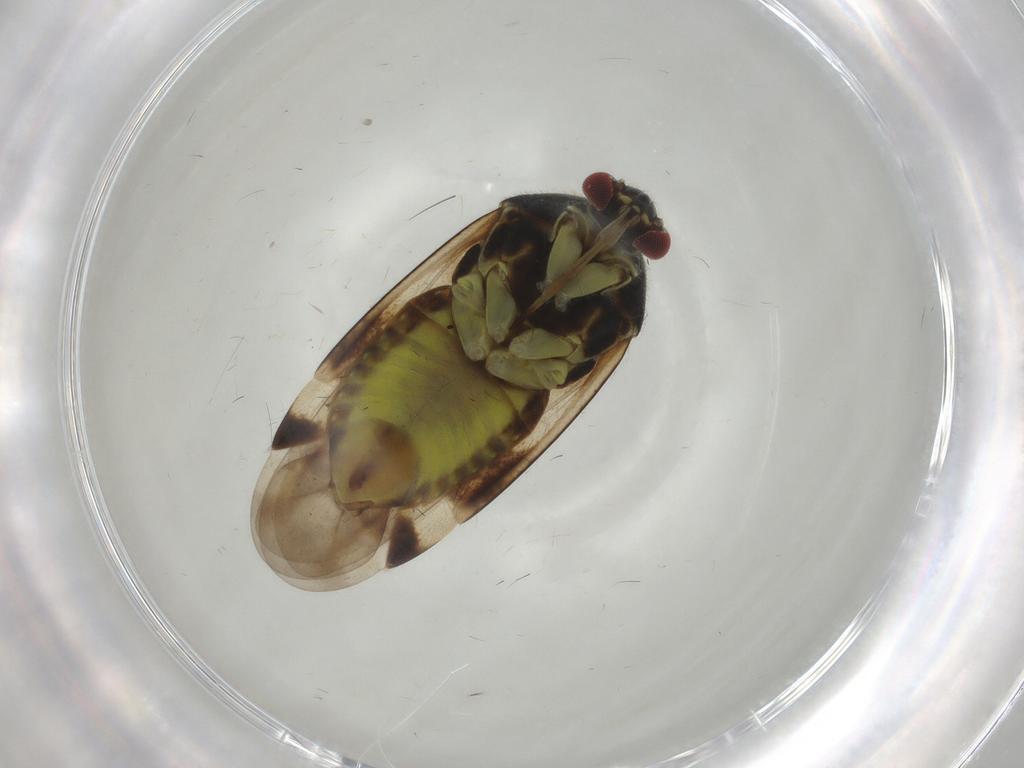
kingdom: Animalia
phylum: Arthropoda
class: Insecta
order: Hemiptera
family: Miridae
